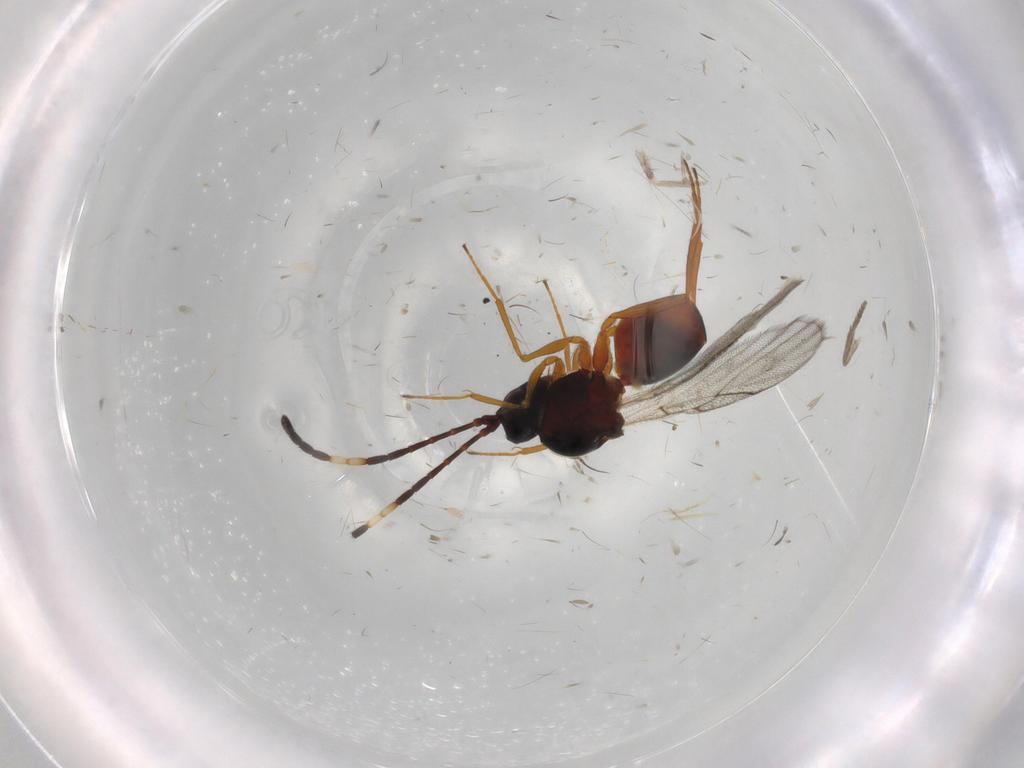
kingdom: Animalia
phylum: Arthropoda
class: Insecta
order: Hymenoptera
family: Figitidae
